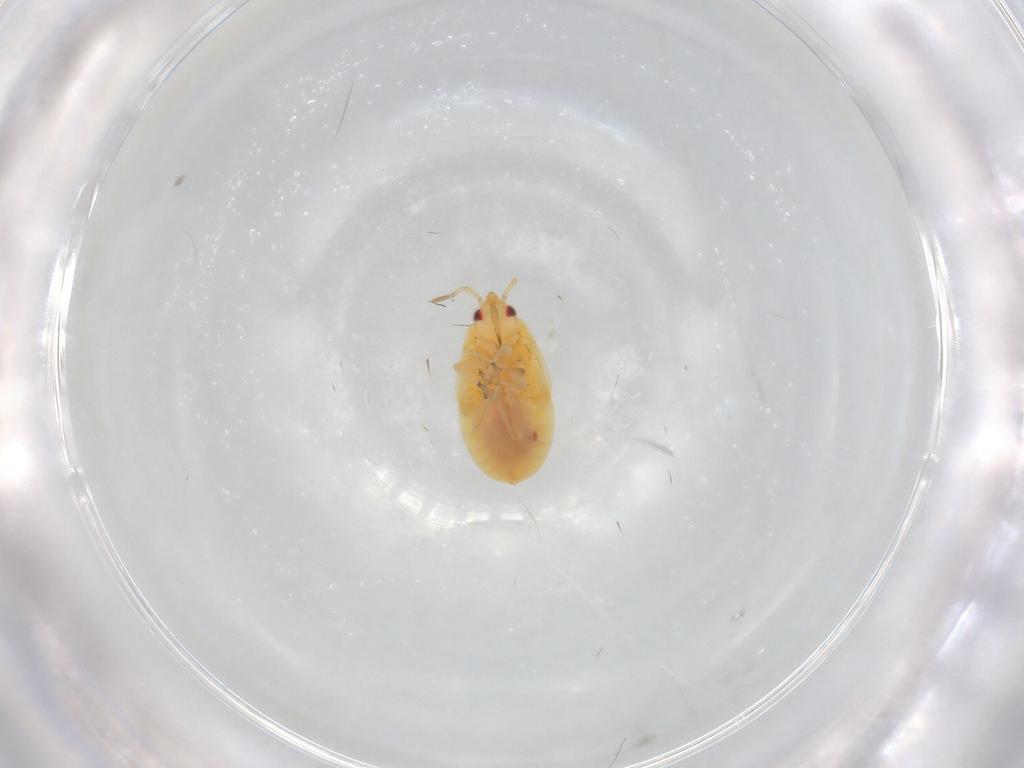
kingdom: Animalia
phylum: Arthropoda
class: Insecta
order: Hemiptera
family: Anthocoridae
